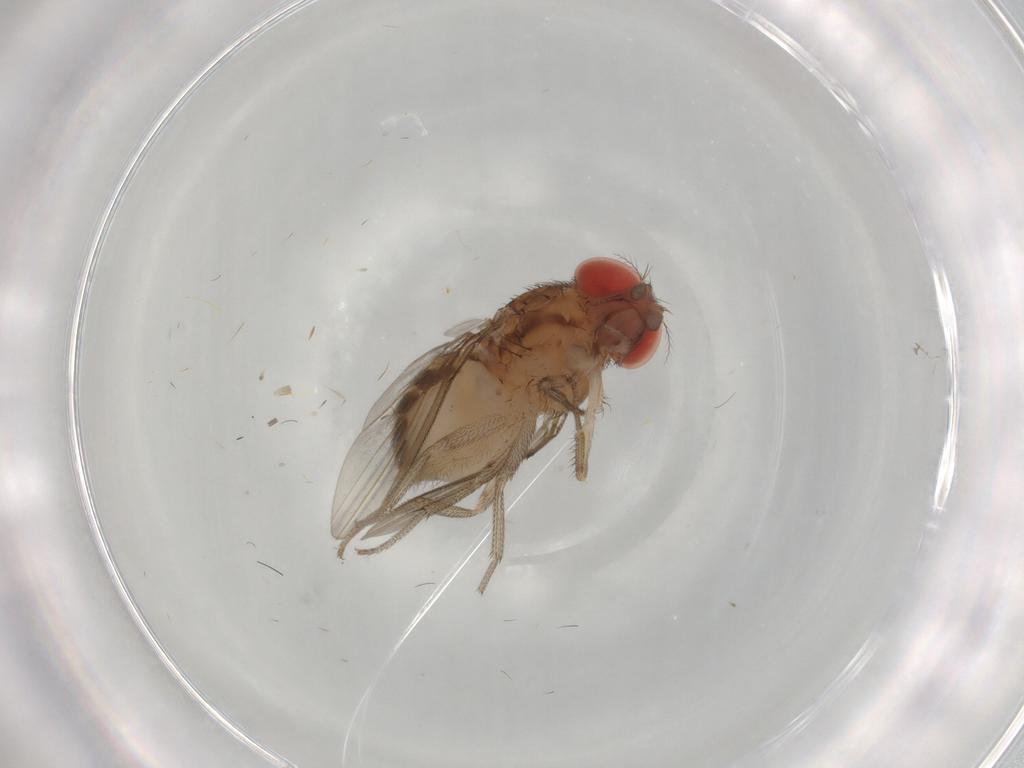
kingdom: Animalia
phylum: Arthropoda
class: Insecta
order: Diptera
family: Drosophilidae
